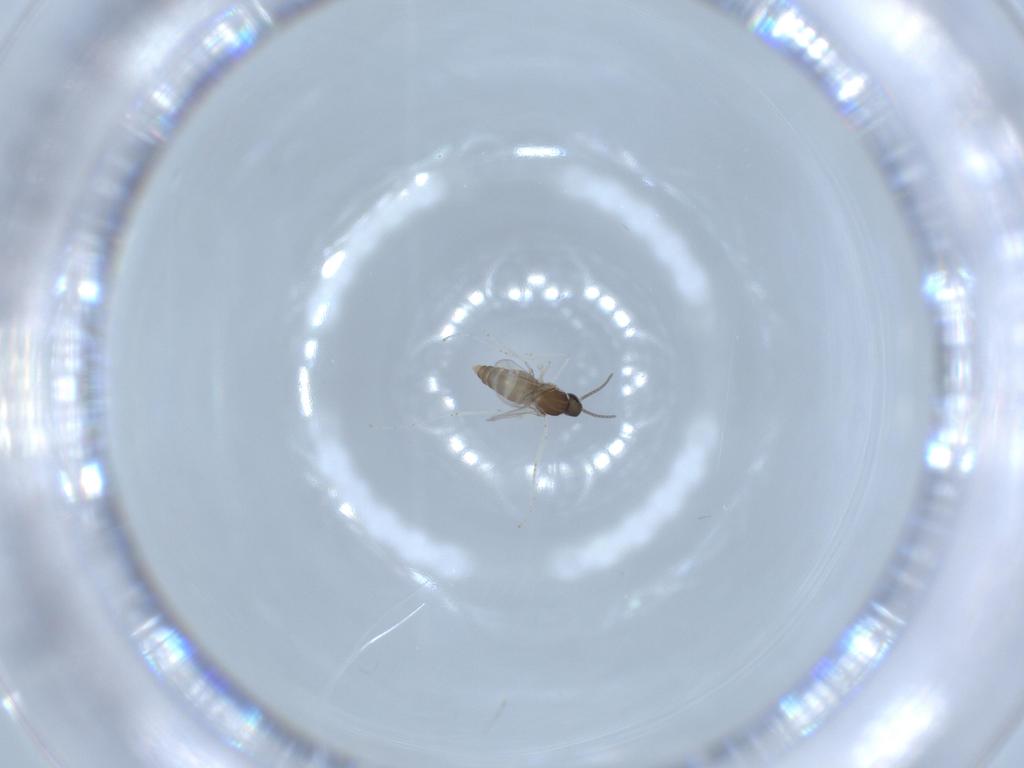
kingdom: Animalia
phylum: Arthropoda
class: Insecta
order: Diptera
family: Cecidomyiidae
